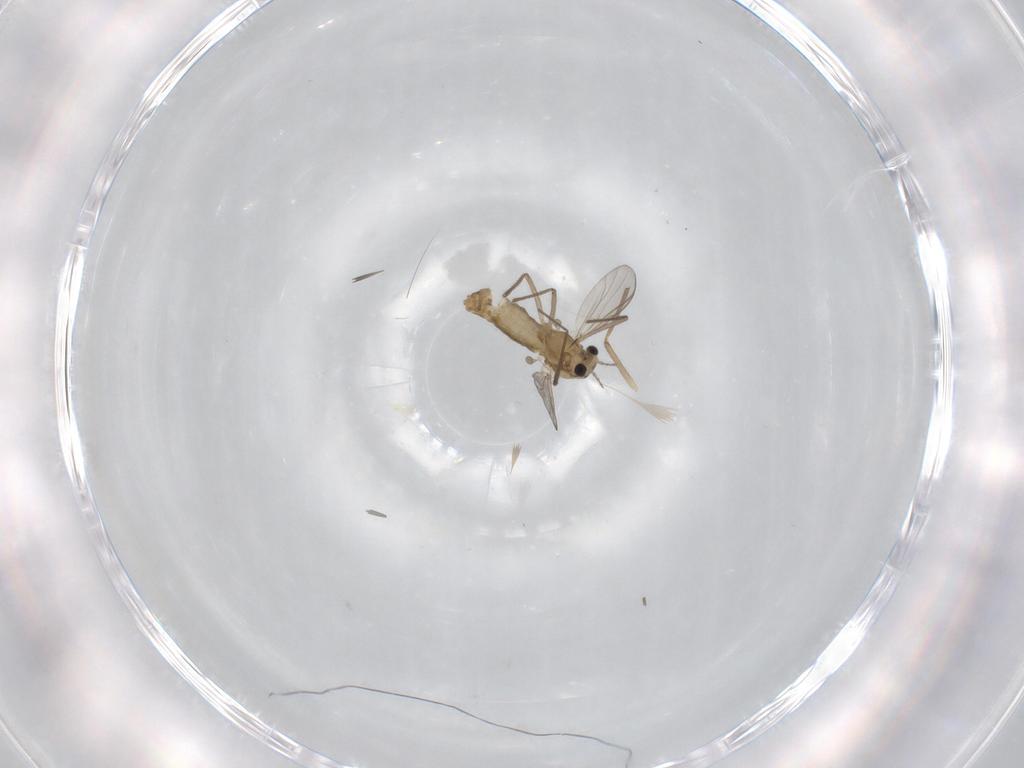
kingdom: Animalia
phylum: Arthropoda
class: Insecta
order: Diptera
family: Chironomidae
